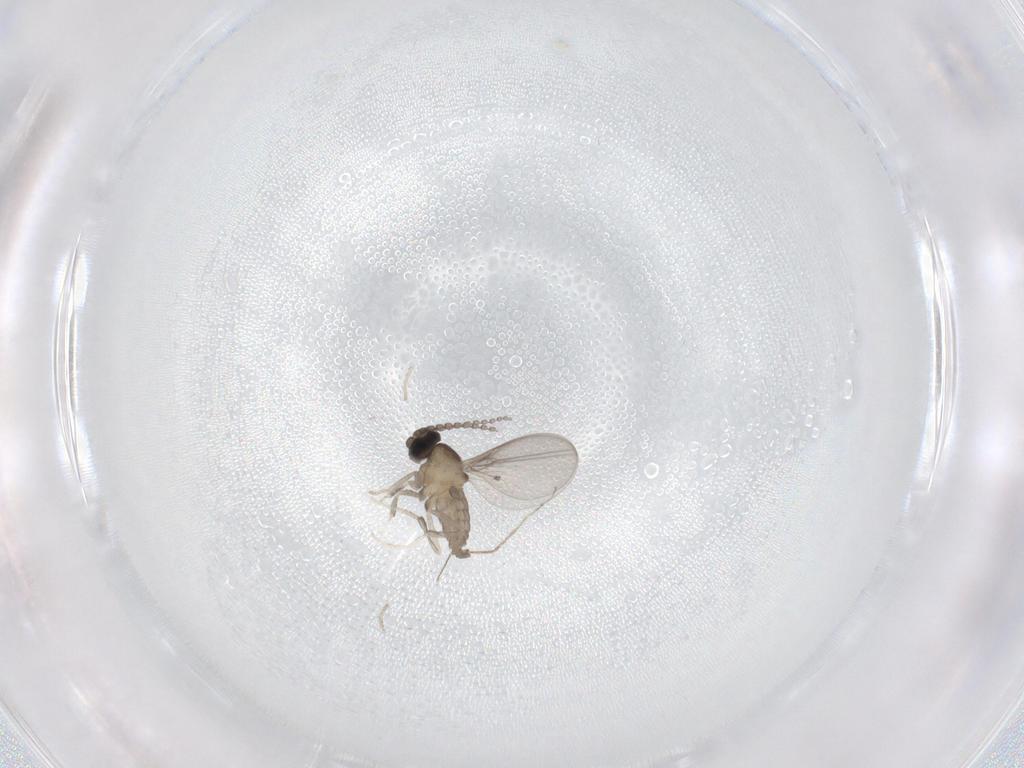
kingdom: Animalia
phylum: Arthropoda
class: Insecta
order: Diptera
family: Cecidomyiidae
